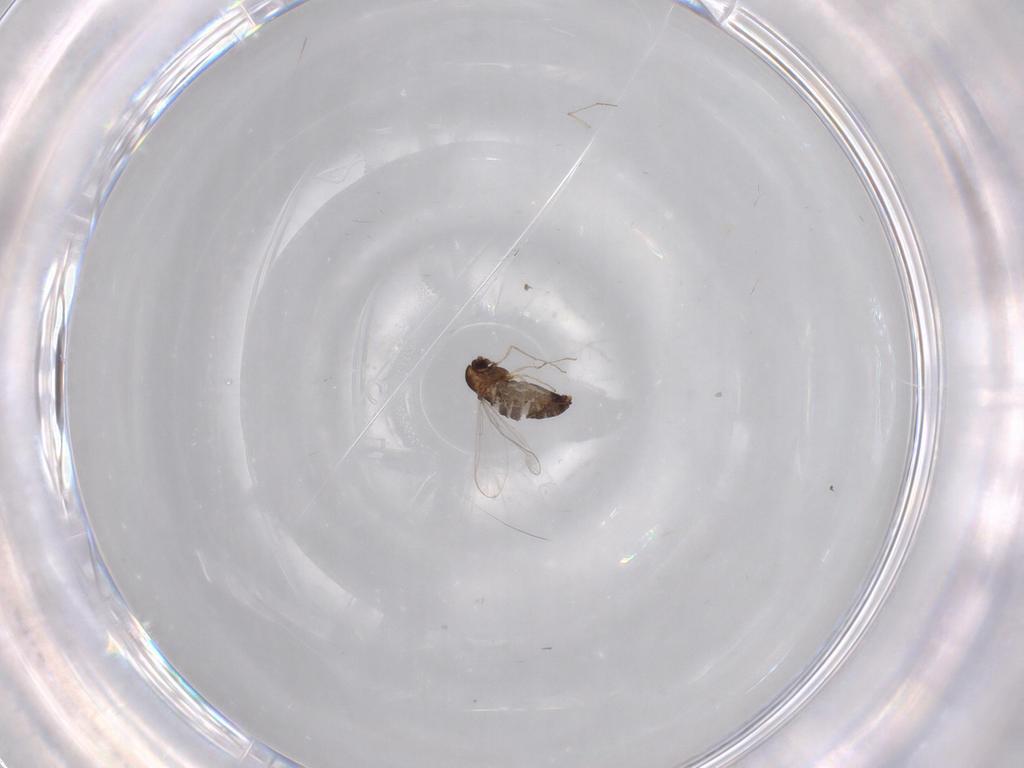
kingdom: Animalia
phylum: Arthropoda
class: Insecta
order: Diptera
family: Chironomidae
